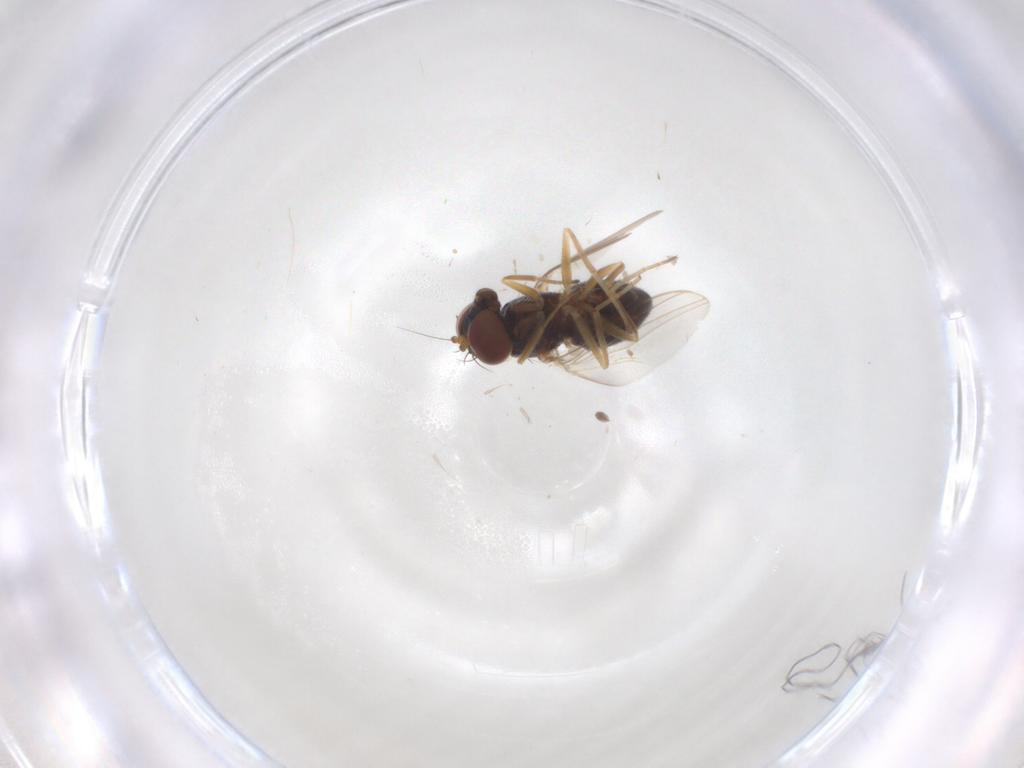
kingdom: Animalia
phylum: Arthropoda
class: Insecta
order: Diptera
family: Dolichopodidae
